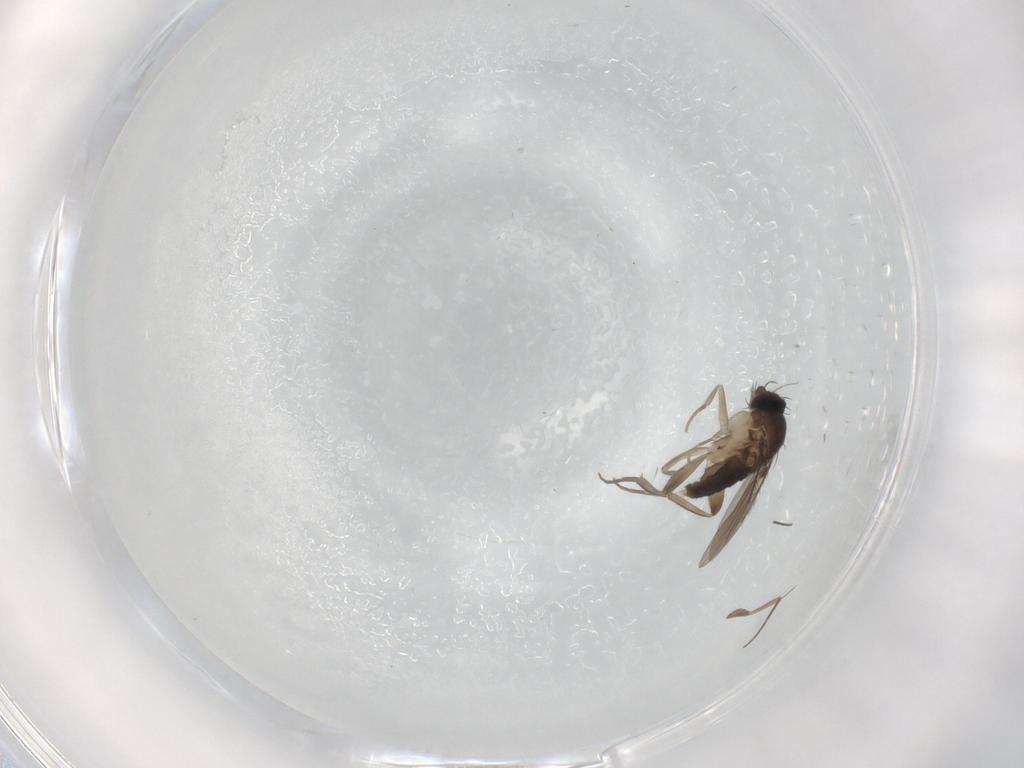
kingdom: Animalia
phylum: Arthropoda
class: Insecta
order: Diptera
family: Phoridae
